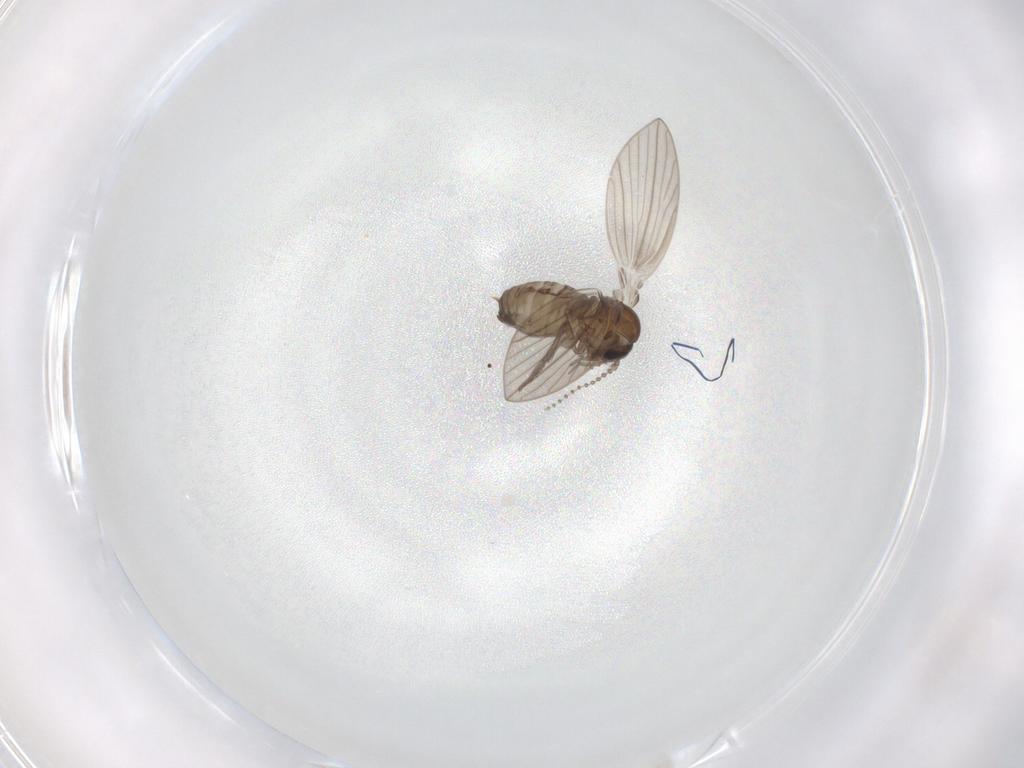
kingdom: Animalia
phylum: Arthropoda
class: Insecta
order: Diptera
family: Psychodidae
